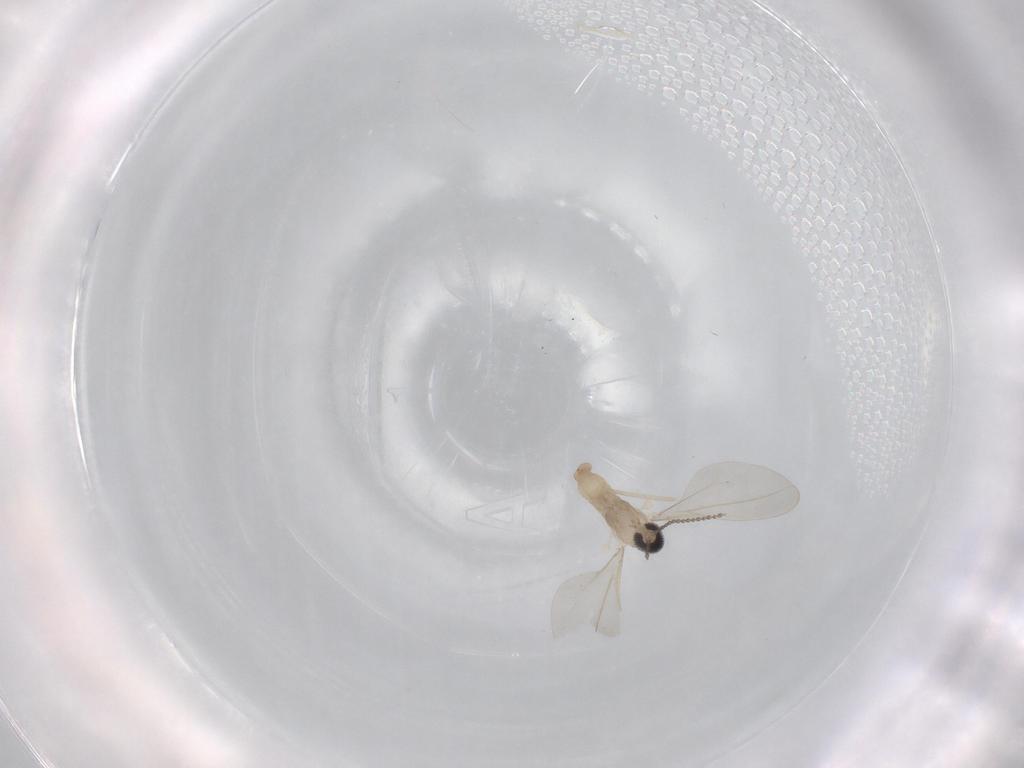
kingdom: Animalia
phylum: Arthropoda
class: Insecta
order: Diptera
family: Cecidomyiidae
